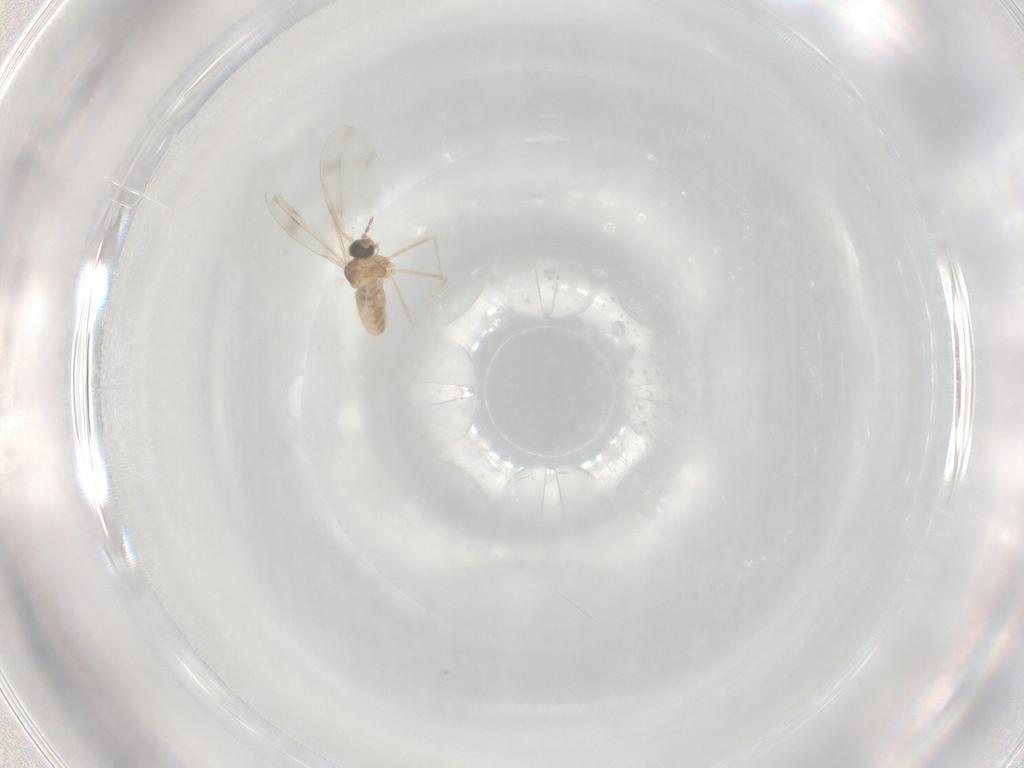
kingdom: Animalia
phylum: Arthropoda
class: Insecta
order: Diptera
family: Cecidomyiidae
